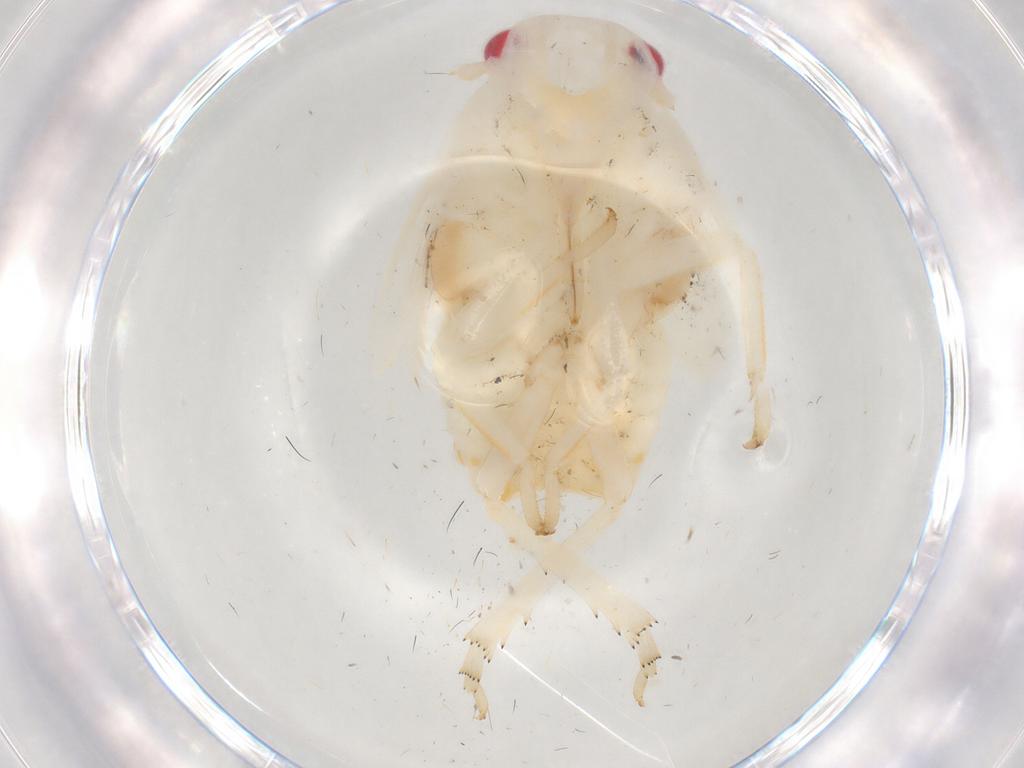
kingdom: Animalia
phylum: Arthropoda
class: Insecta
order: Hemiptera
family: Flatidae
